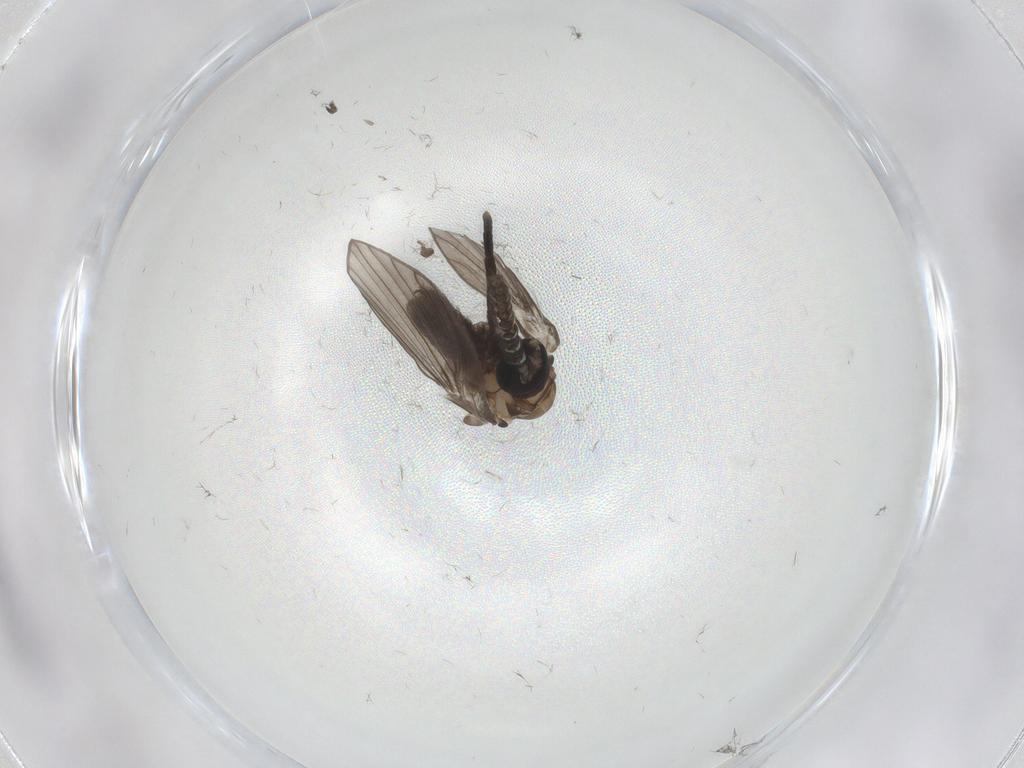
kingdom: Animalia
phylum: Arthropoda
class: Insecta
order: Diptera
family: Psychodidae
